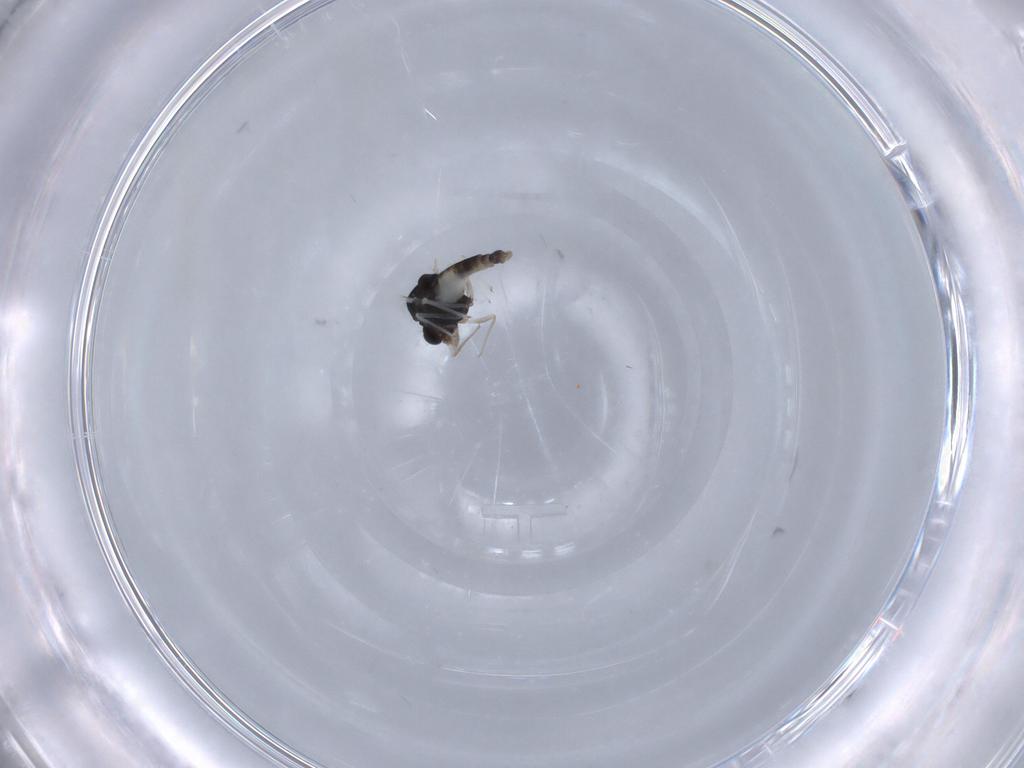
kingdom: Animalia
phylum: Arthropoda
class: Insecta
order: Diptera
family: Chironomidae
